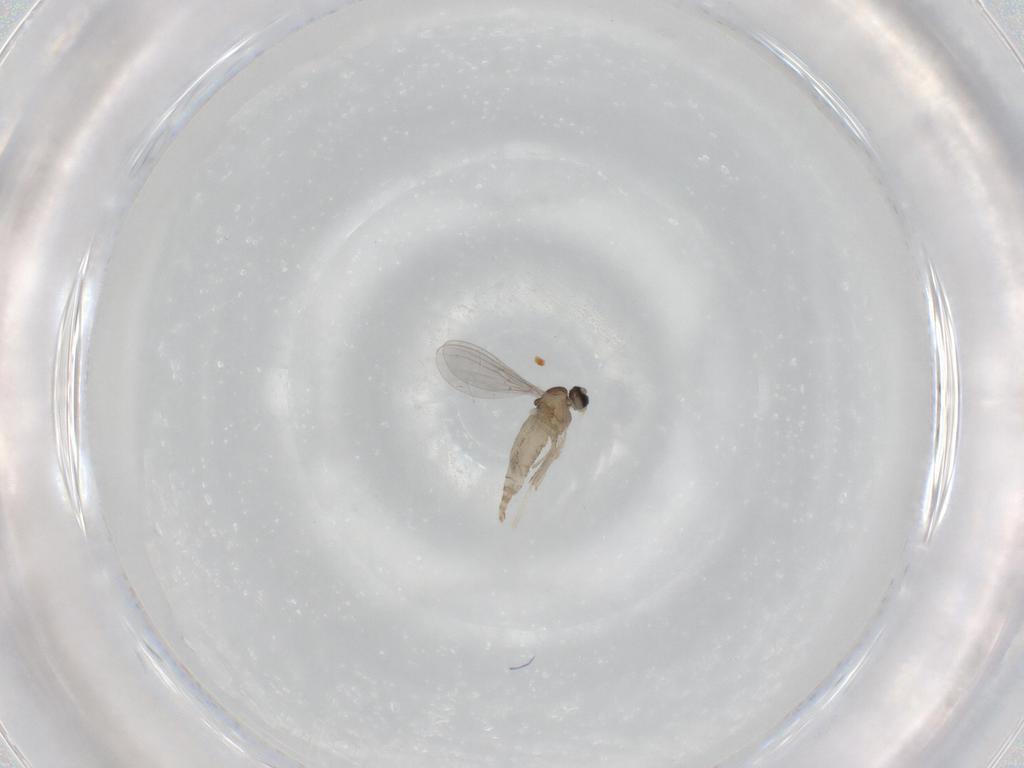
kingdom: Animalia
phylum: Arthropoda
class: Insecta
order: Diptera
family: Cecidomyiidae
